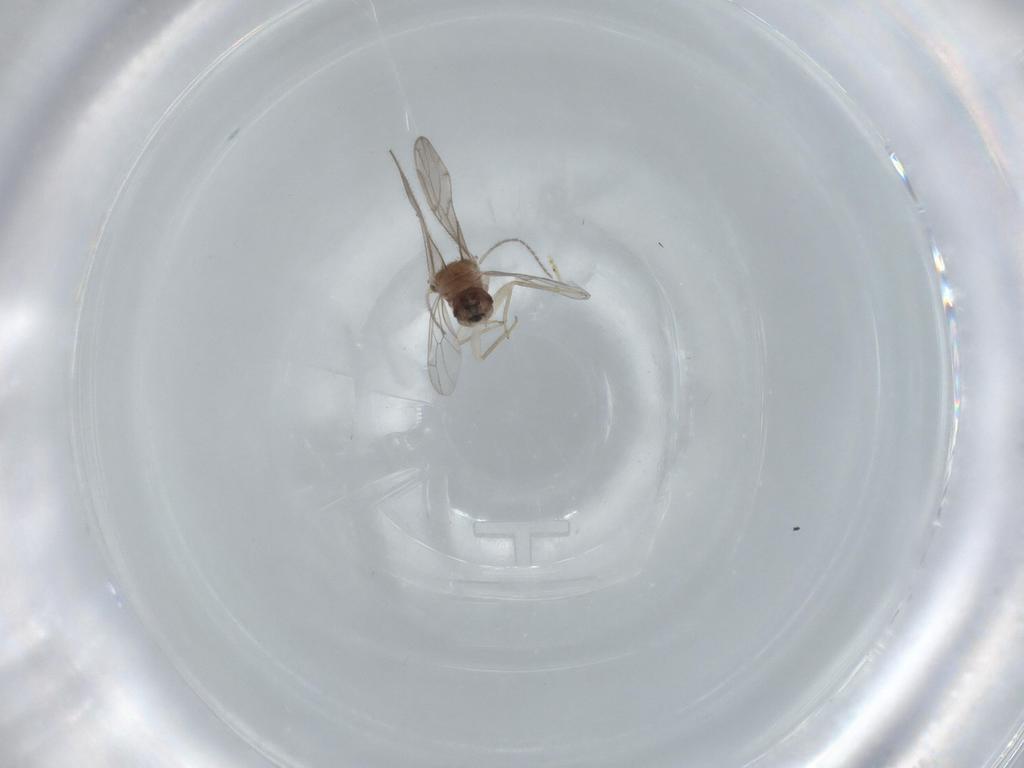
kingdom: Animalia
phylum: Arthropoda
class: Insecta
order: Psocodea
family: Ectopsocidae
